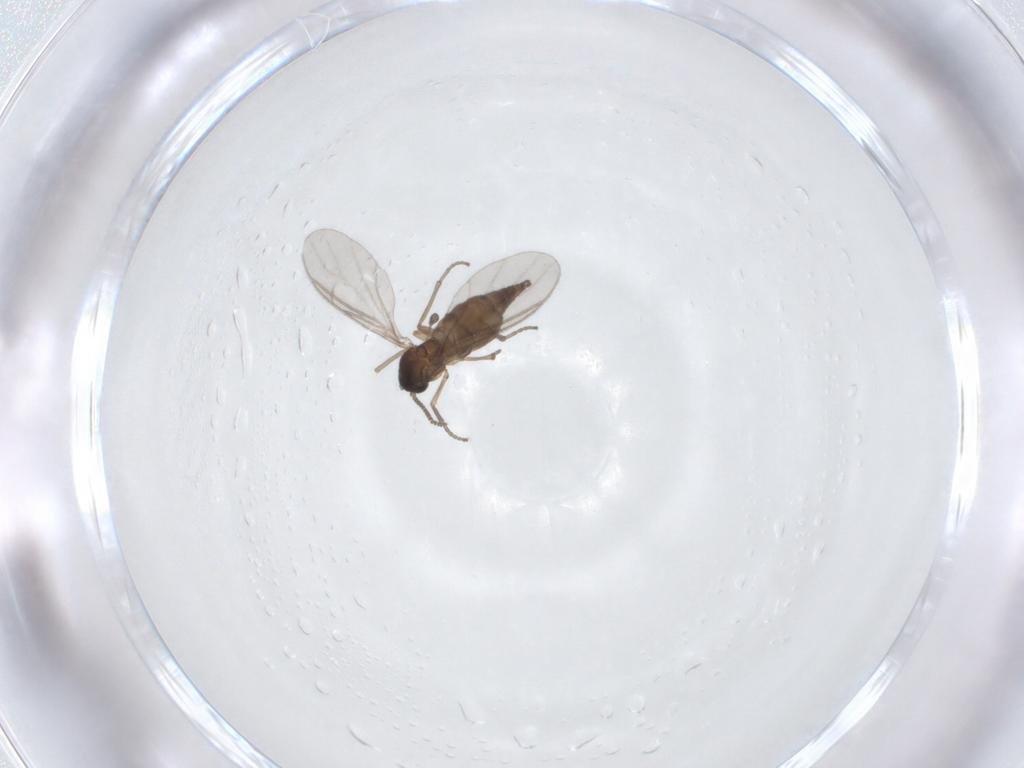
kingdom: Animalia
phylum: Arthropoda
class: Insecta
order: Diptera
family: Sciaridae
